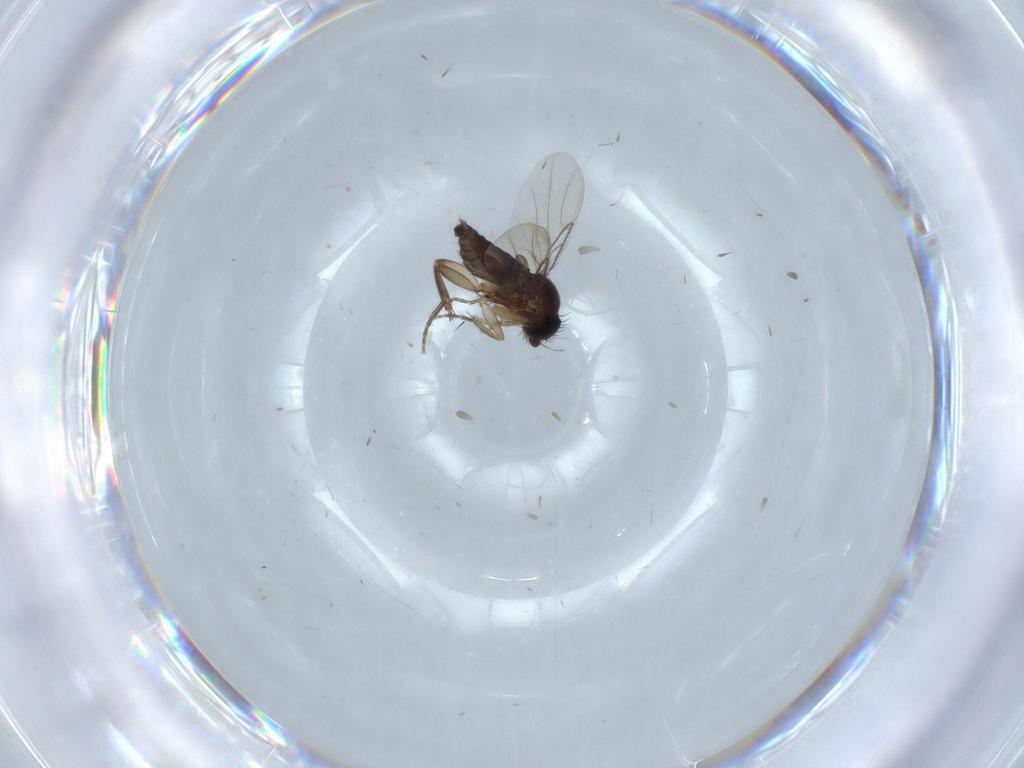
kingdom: Animalia
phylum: Arthropoda
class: Insecta
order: Diptera
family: Phoridae
